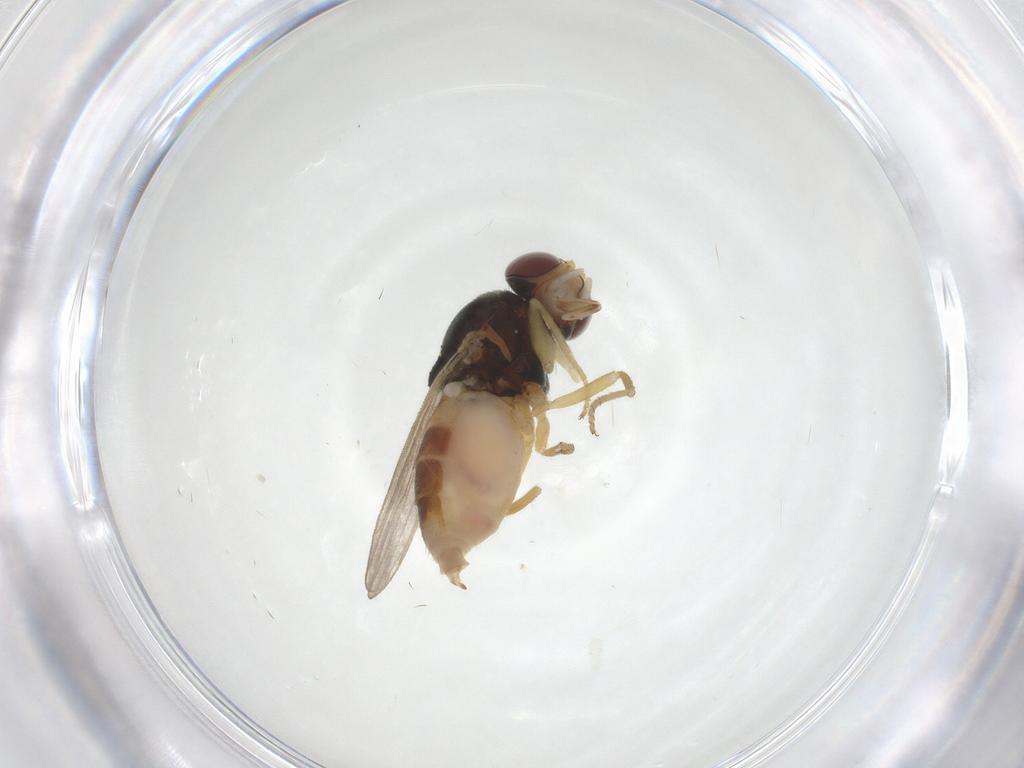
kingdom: Animalia
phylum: Arthropoda
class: Insecta
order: Diptera
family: Chloropidae
